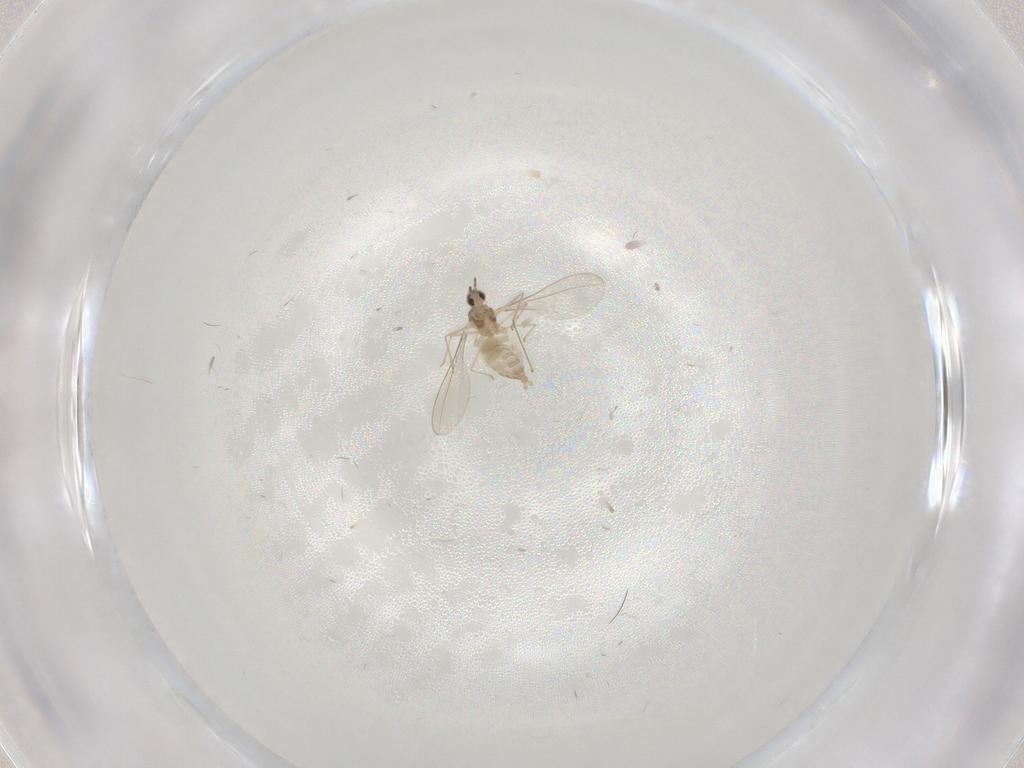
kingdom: Animalia
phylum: Arthropoda
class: Insecta
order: Diptera
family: Cecidomyiidae
